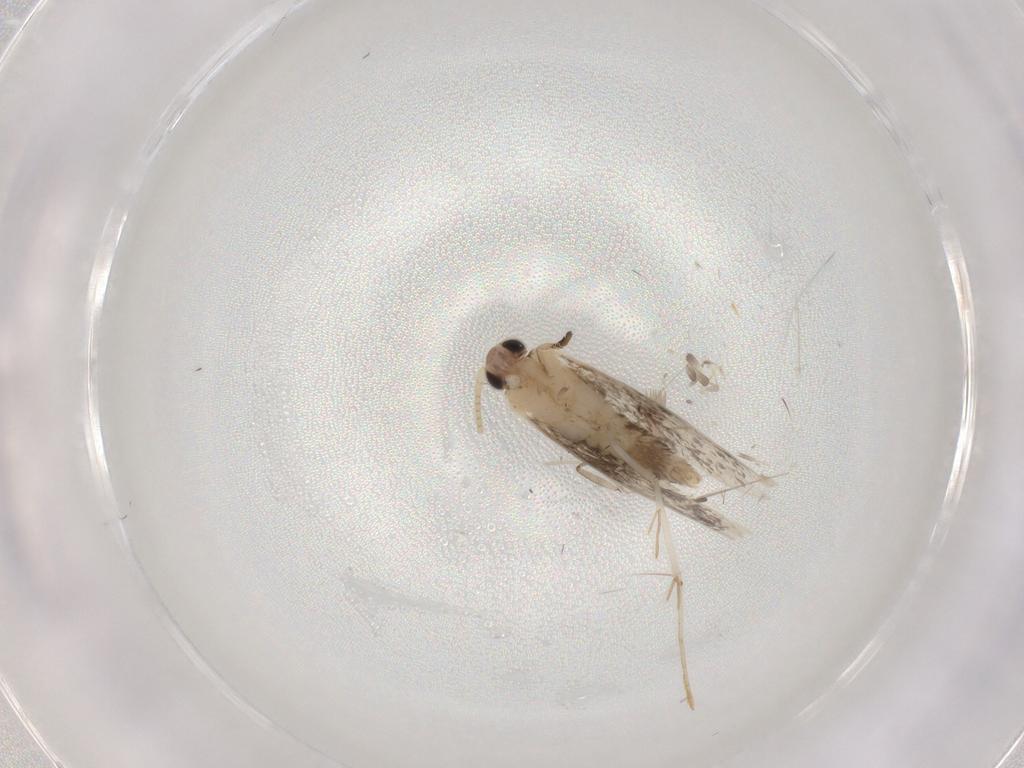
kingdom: Animalia
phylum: Arthropoda
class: Insecta
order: Lepidoptera
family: Tineidae
